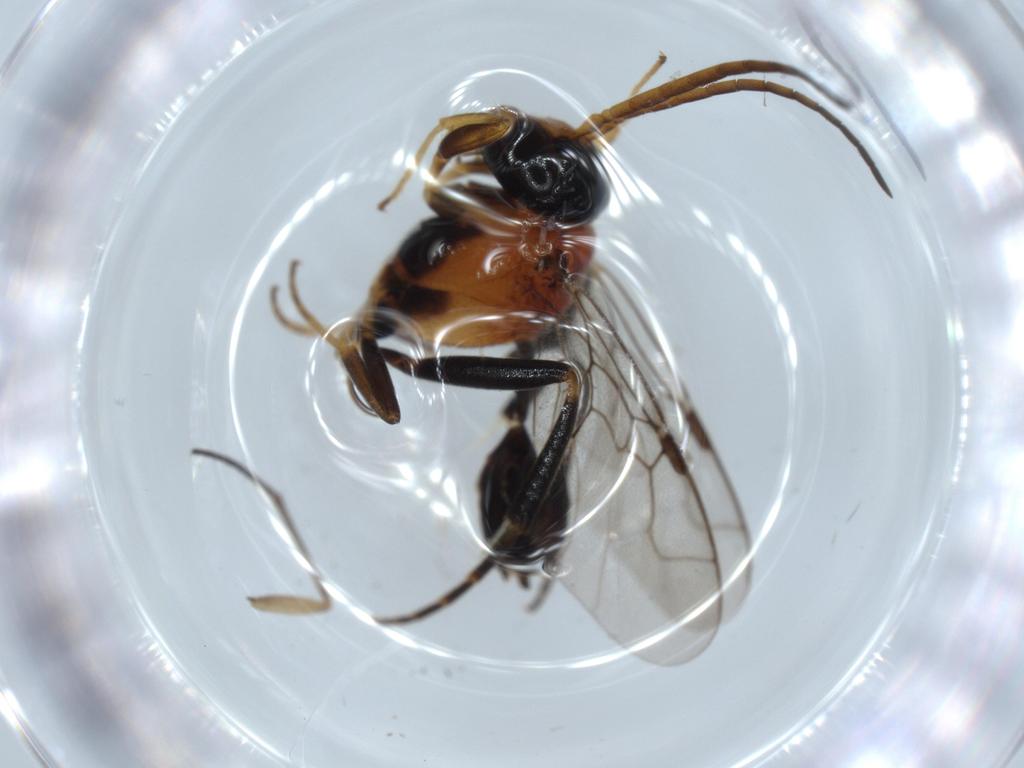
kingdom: Animalia
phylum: Arthropoda
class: Insecta
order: Hymenoptera
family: Evaniidae
